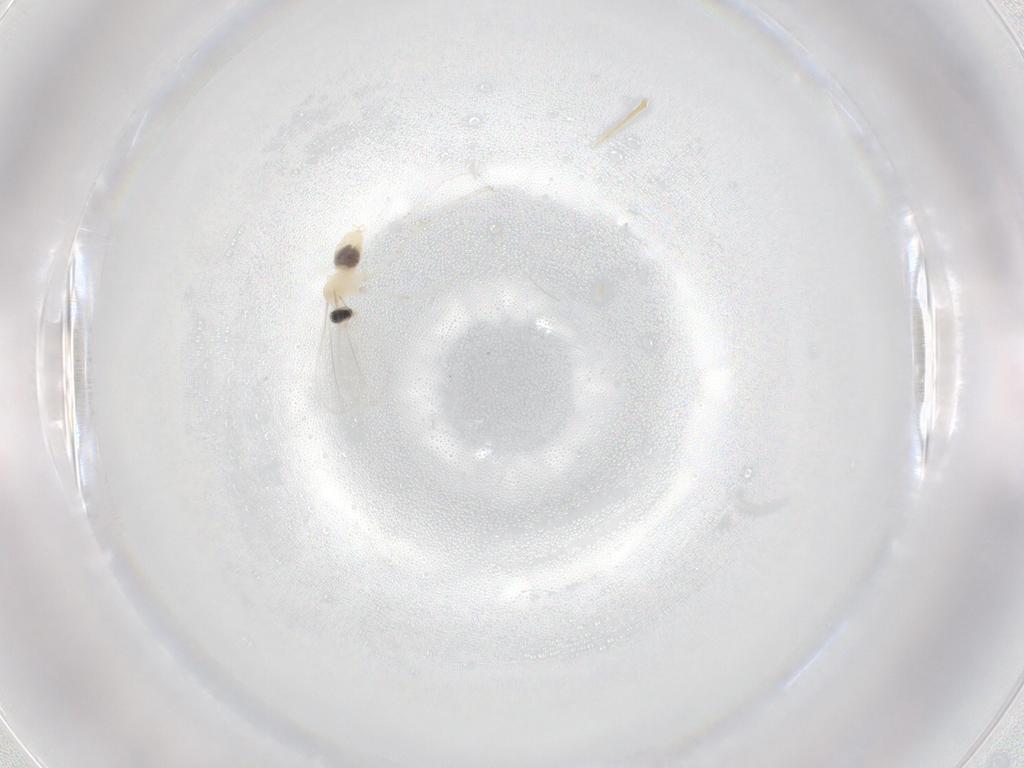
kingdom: Animalia
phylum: Arthropoda
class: Insecta
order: Diptera
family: Cecidomyiidae
